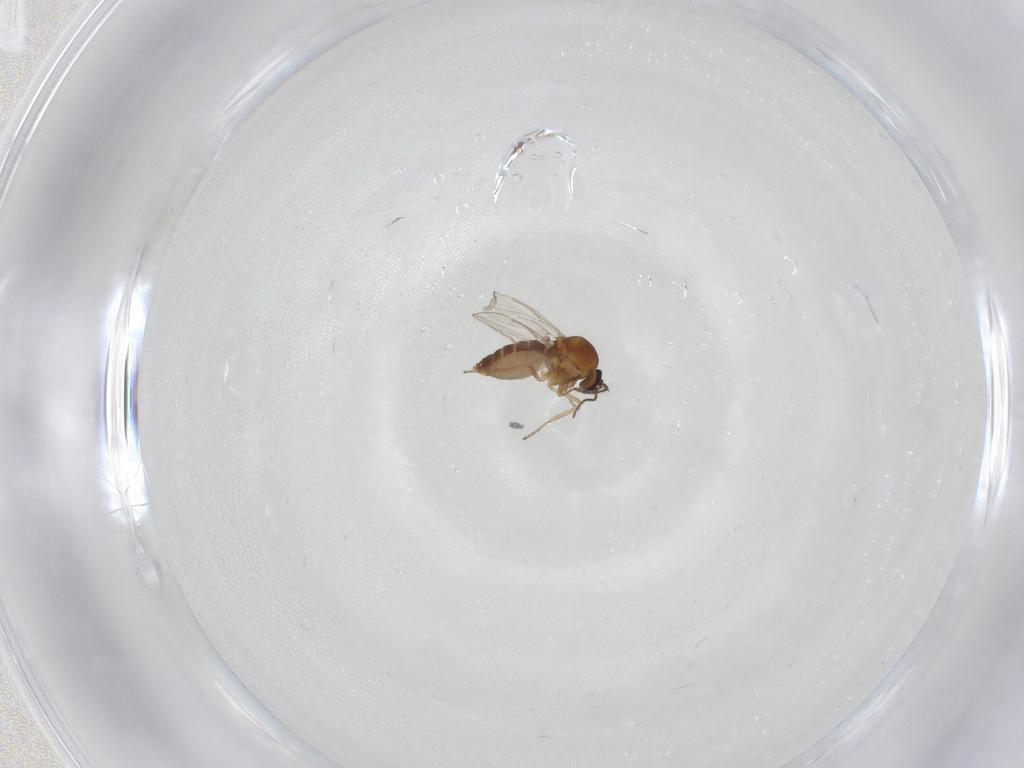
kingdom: Animalia
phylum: Arthropoda
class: Insecta
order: Diptera
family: Ceratopogonidae
